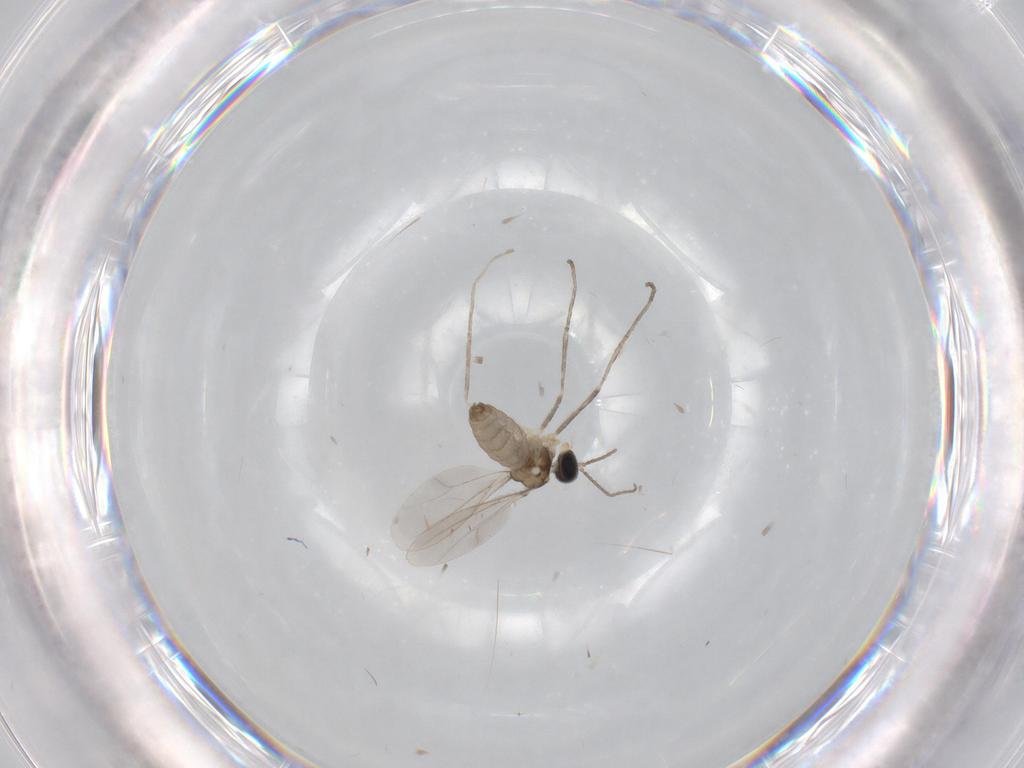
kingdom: Animalia
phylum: Arthropoda
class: Insecta
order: Diptera
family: Cecidomyiidae
